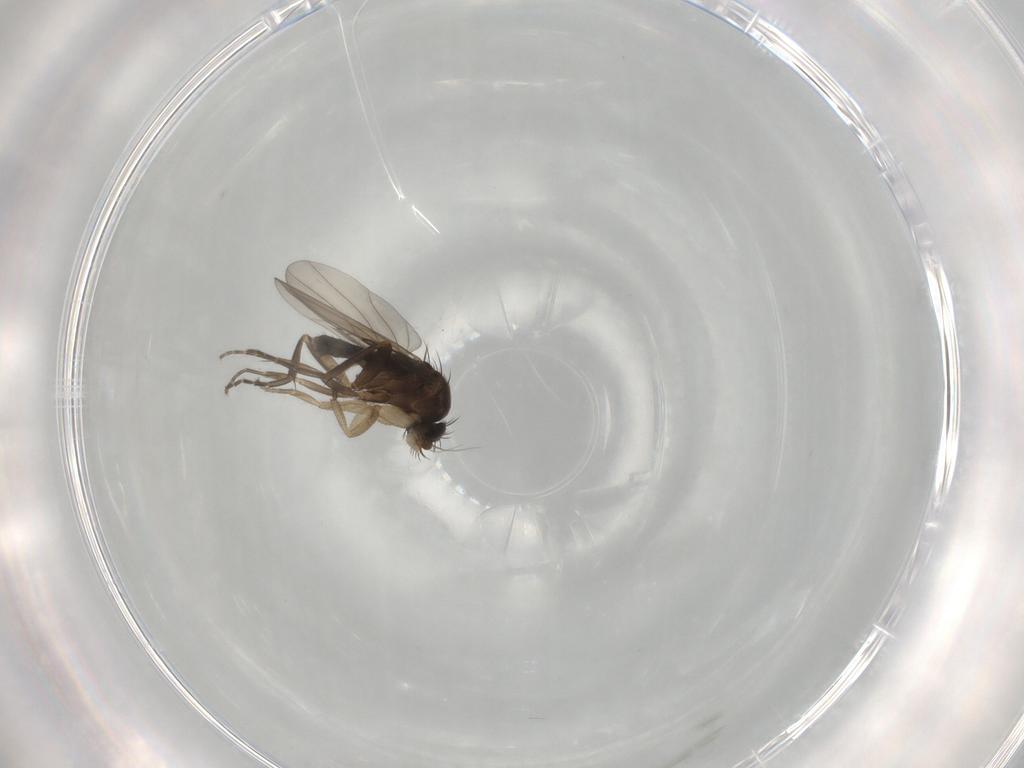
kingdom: Animalia
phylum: Arthropoda
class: Insecta
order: Diptera
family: Phoridae
